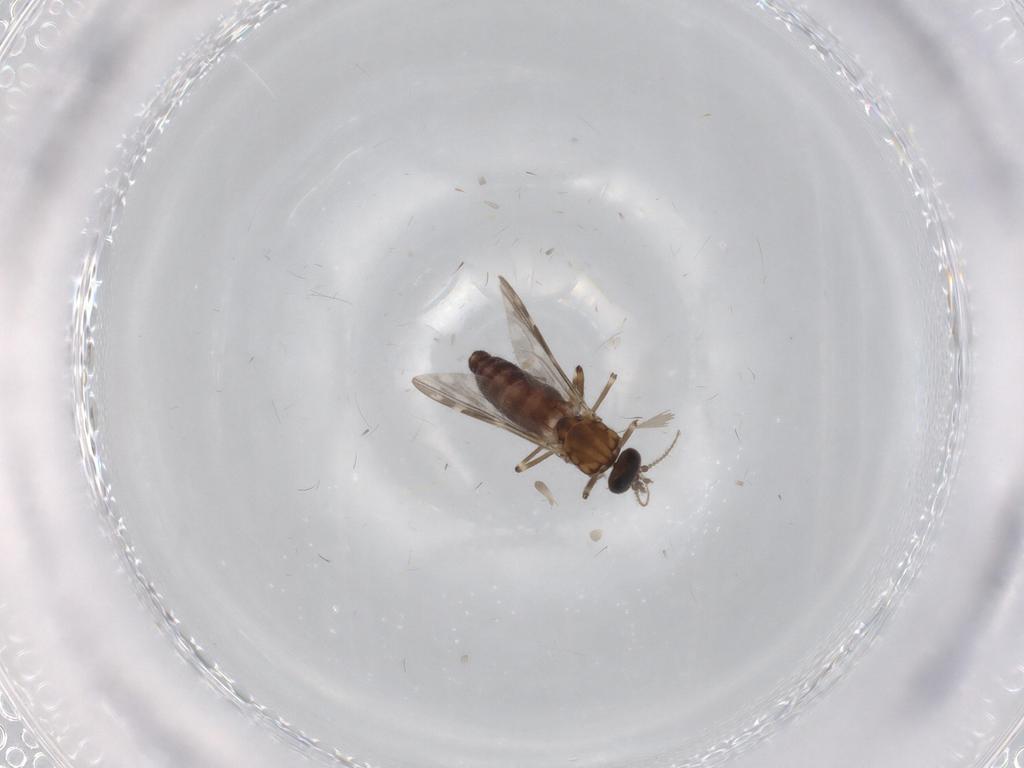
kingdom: Animalia
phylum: Arthropoda
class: Insecta
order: Diptera
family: Ceratopogonidae
